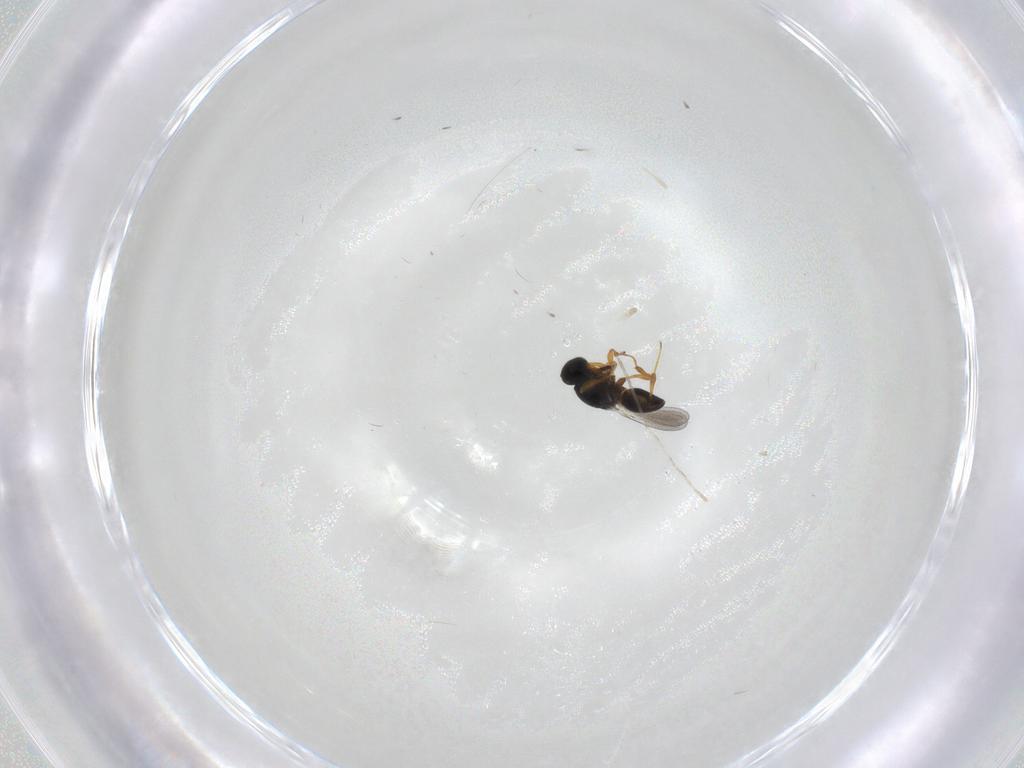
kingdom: Animalia
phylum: Arthropoda
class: Insecta
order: Hymenoptera
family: Platygastridae
